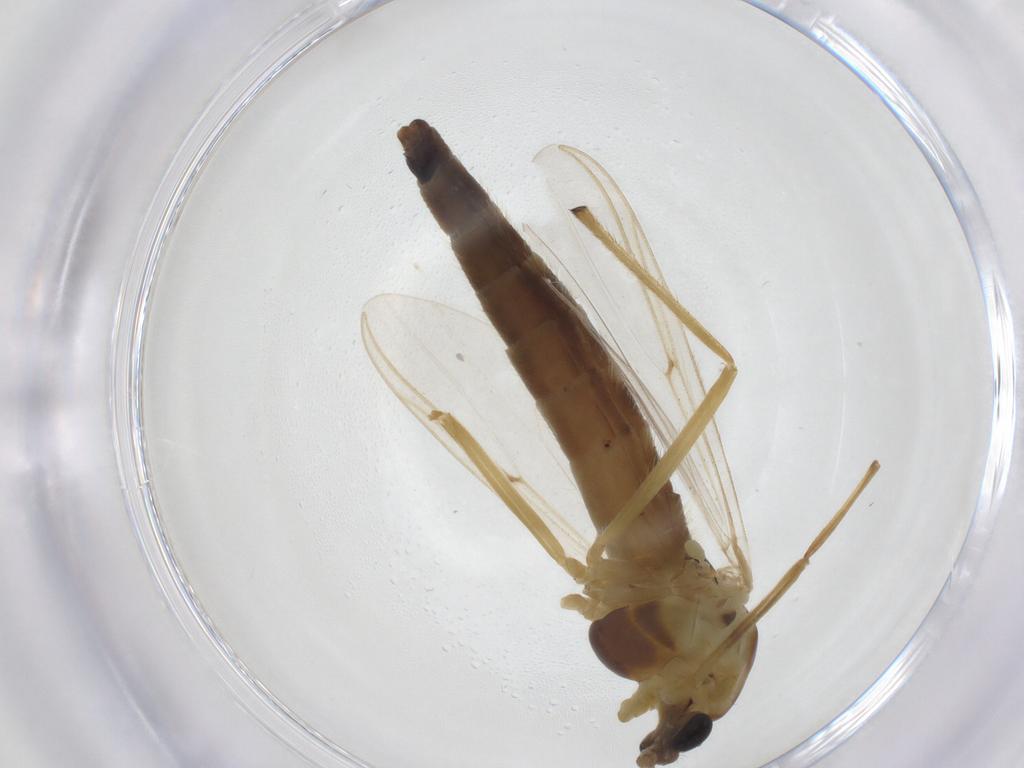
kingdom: Animalia
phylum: Arthropoda
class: Insecta
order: Diptera
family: Chironomidae
